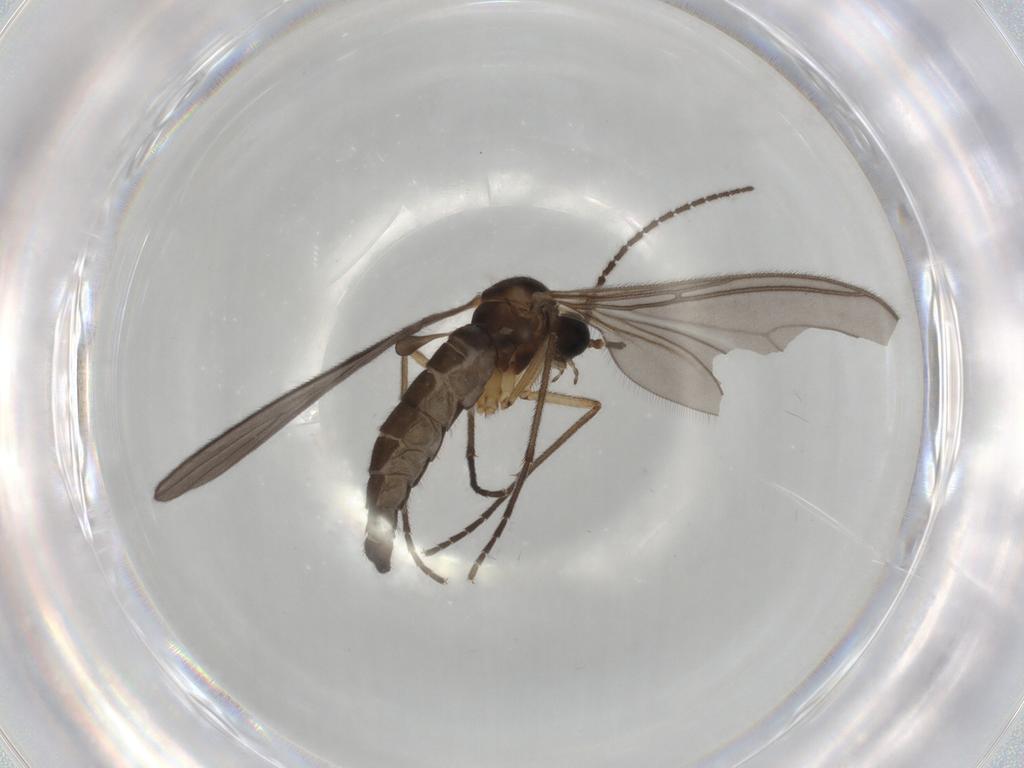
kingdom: Animalia
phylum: Arthropoda
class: Insecta
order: Diptera
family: Sciaridae
